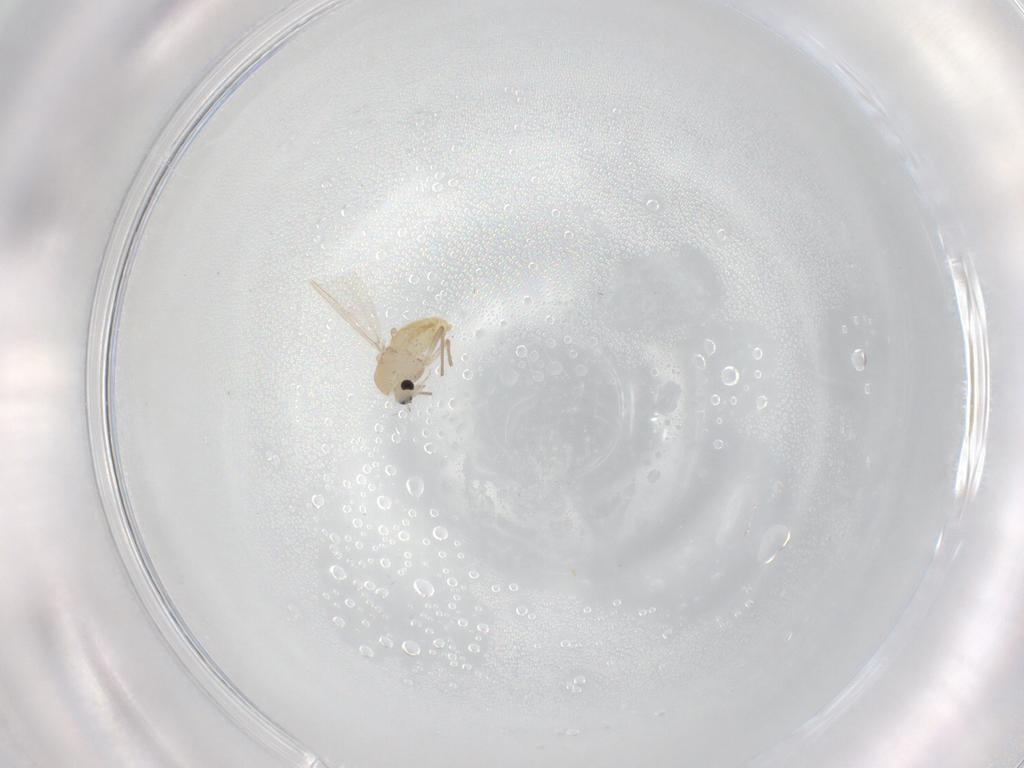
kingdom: Animalia
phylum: Arthropoda
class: Insecta
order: Diptera
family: Chironomidae
